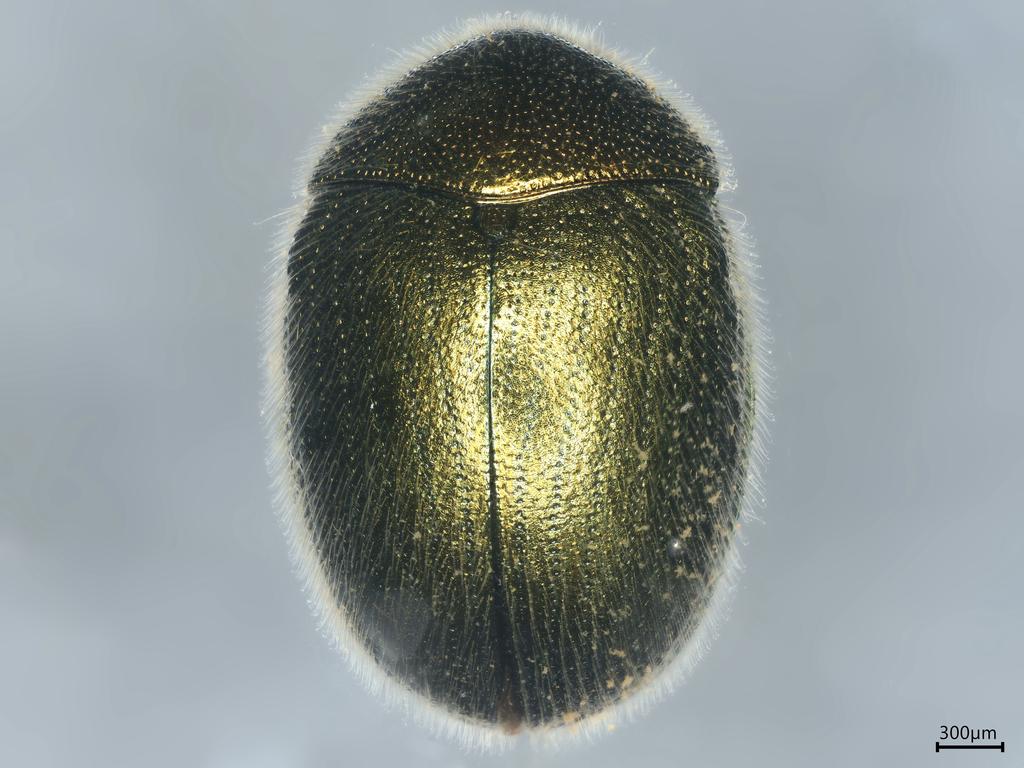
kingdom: Animalia
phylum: Arthropoda
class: Insecta
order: Coleoptera
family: Chrysomelidae
